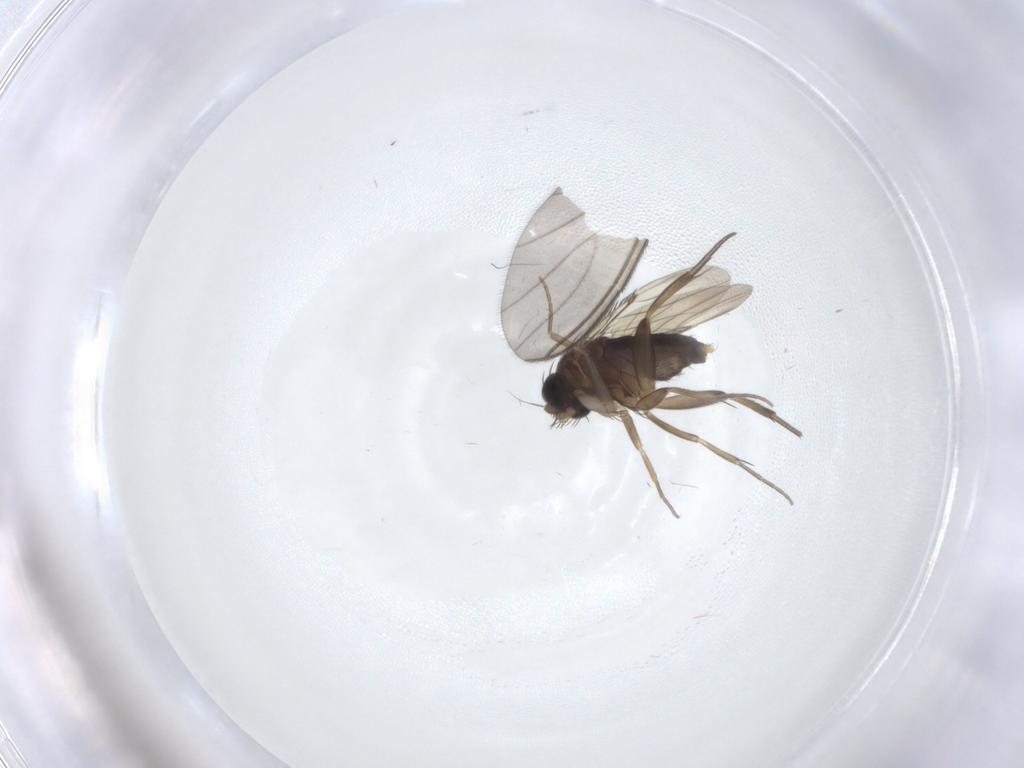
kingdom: Animalia
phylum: Arthropoda
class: Insecta
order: Diptera
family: Phoridae
